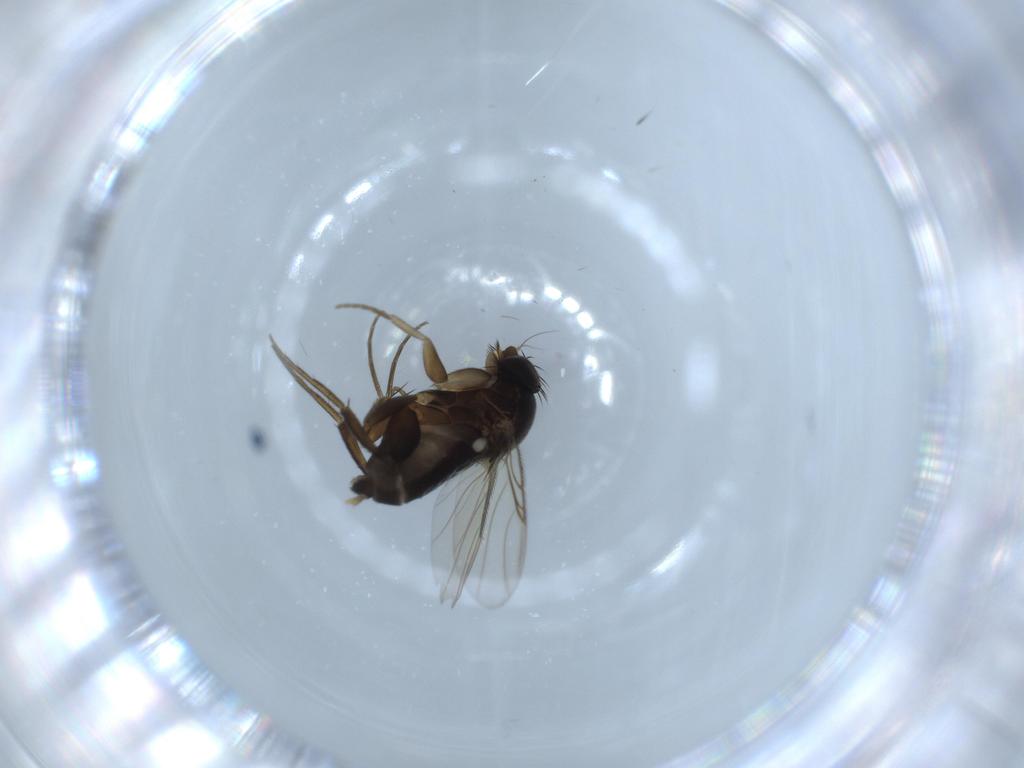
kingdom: Animalia
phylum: Arthropoda
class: Insecta
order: Diptera
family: Phoridae
